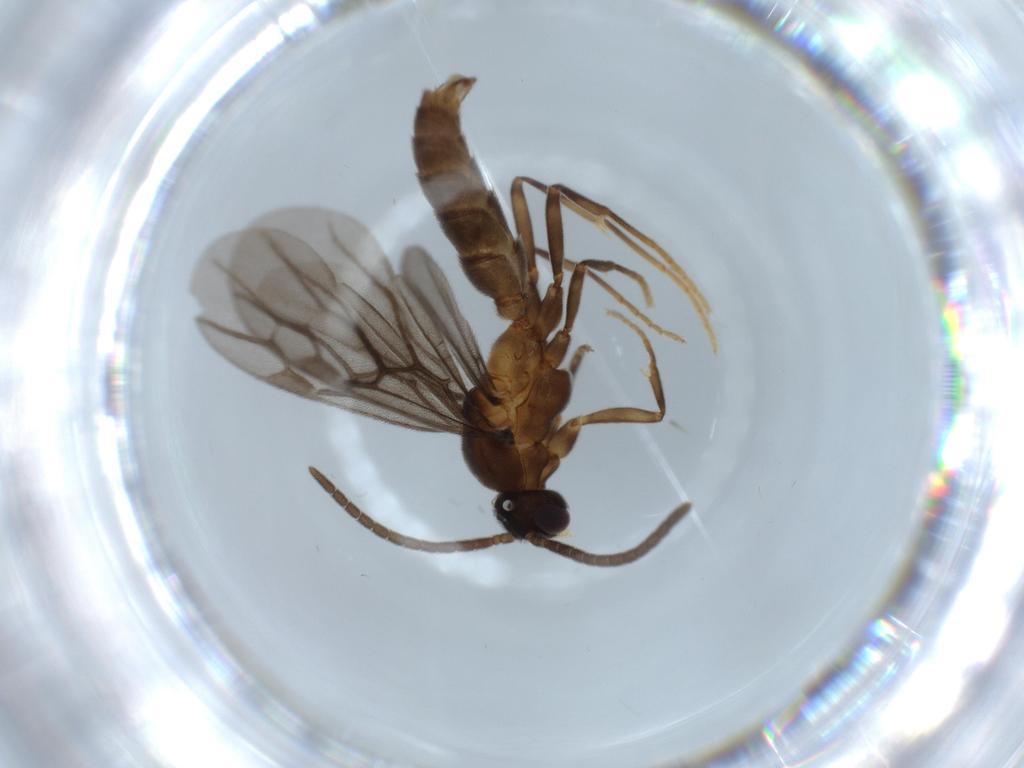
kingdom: Animalia
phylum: Arthropoda
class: Insecta
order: Hymenoptera
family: Formicidae
